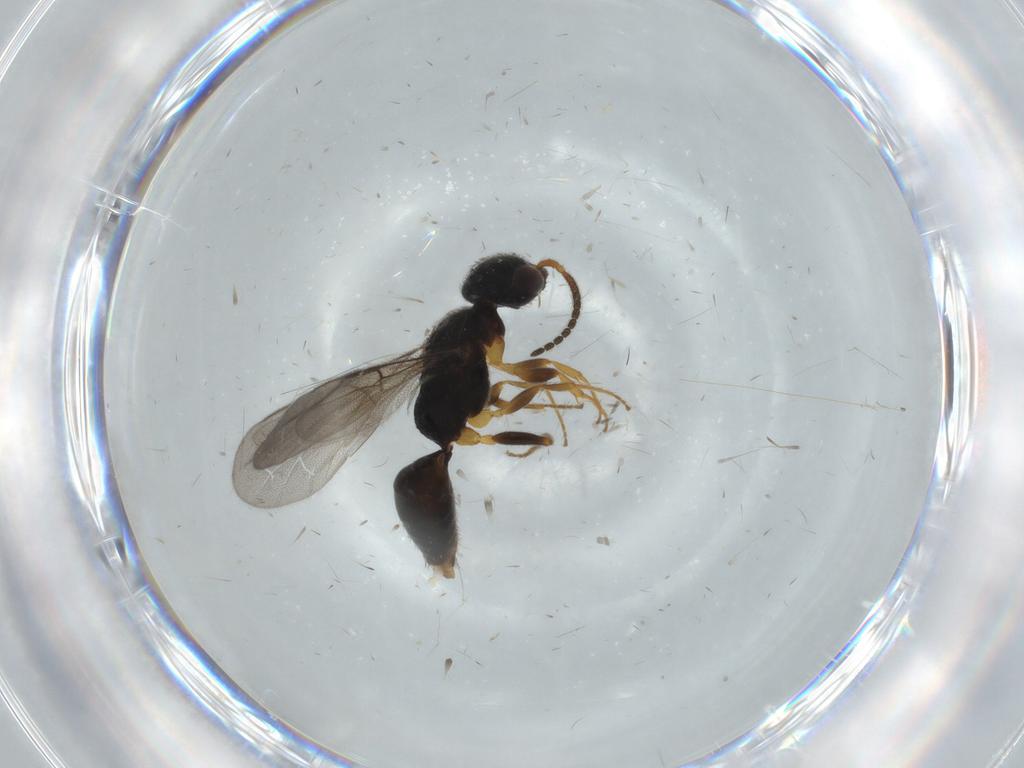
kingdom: Animalia
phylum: Arthropoda
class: Insecta
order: Hymenoptera
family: Bethylidae
